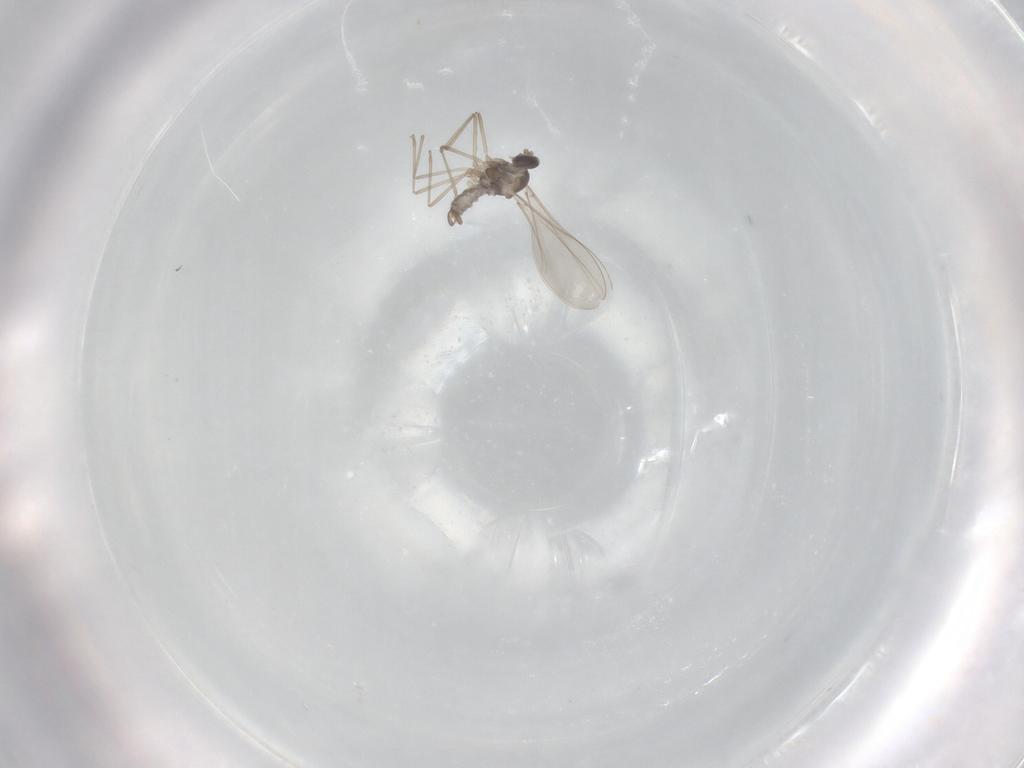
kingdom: Animalia
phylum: Arthropoda
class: Insecta
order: Diptera
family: Cecidomyiidae
